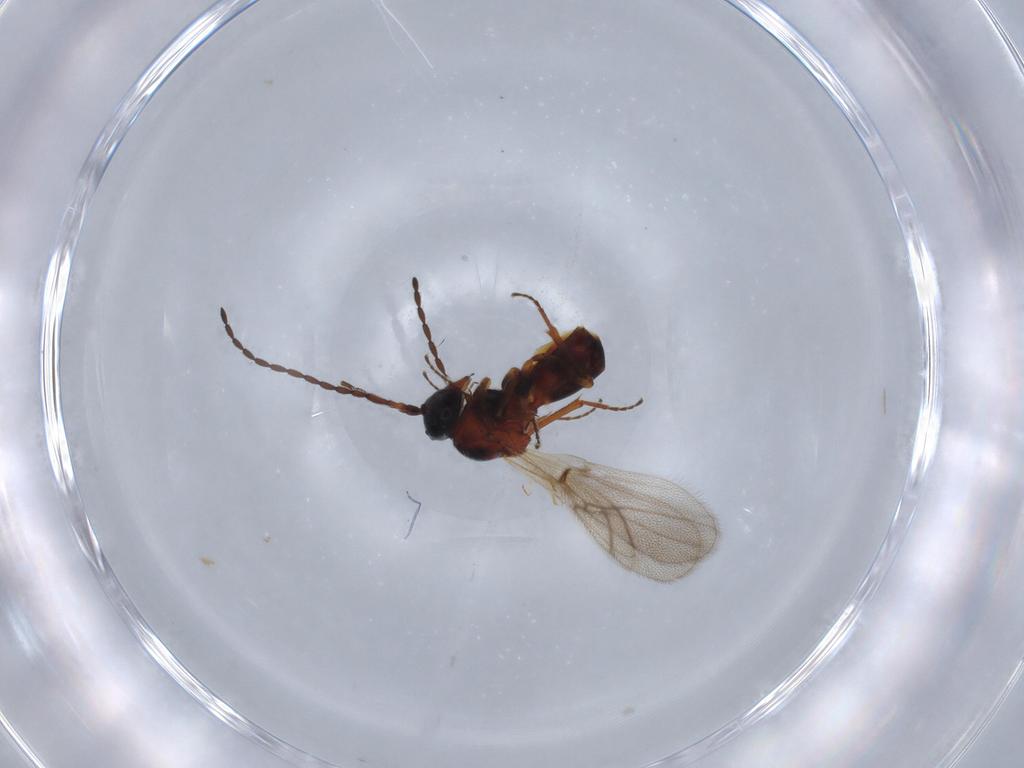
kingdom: Animalia
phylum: Arthropoda
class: Insecta
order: Hymenoptera
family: Figitidae
